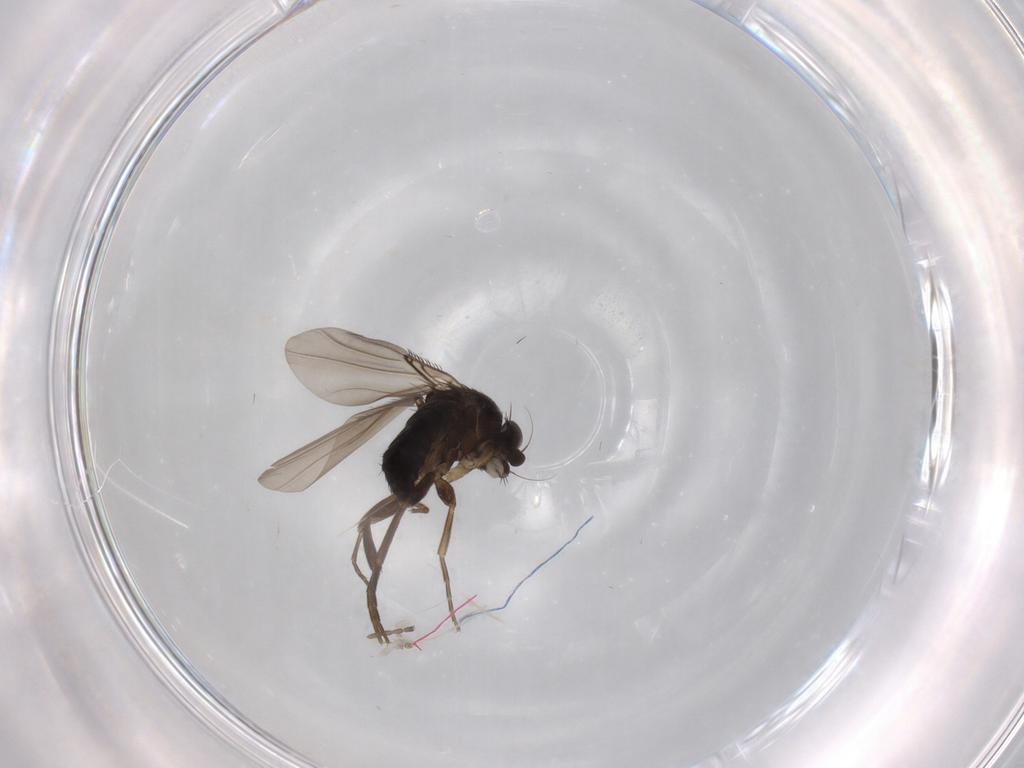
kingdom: Animalia
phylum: Arthropoda
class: Insecta
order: Diptera
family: Phoridae
